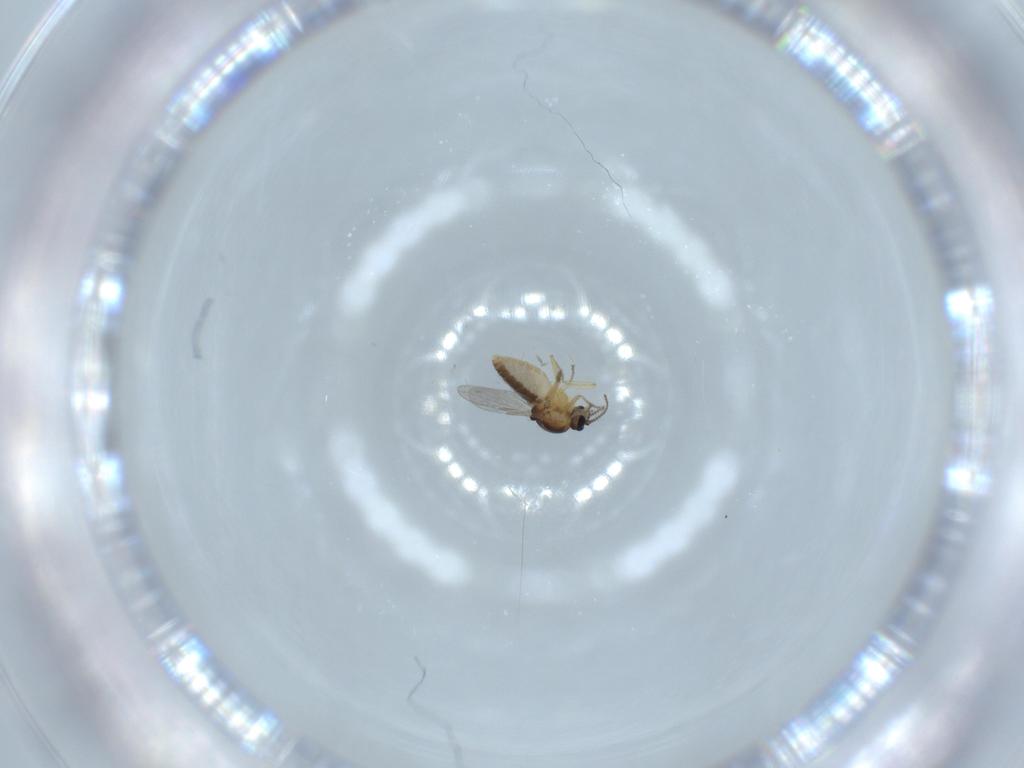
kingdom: Animalia
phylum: Arthropoda
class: Insecta
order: Diptera
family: Ceratopogonidae
